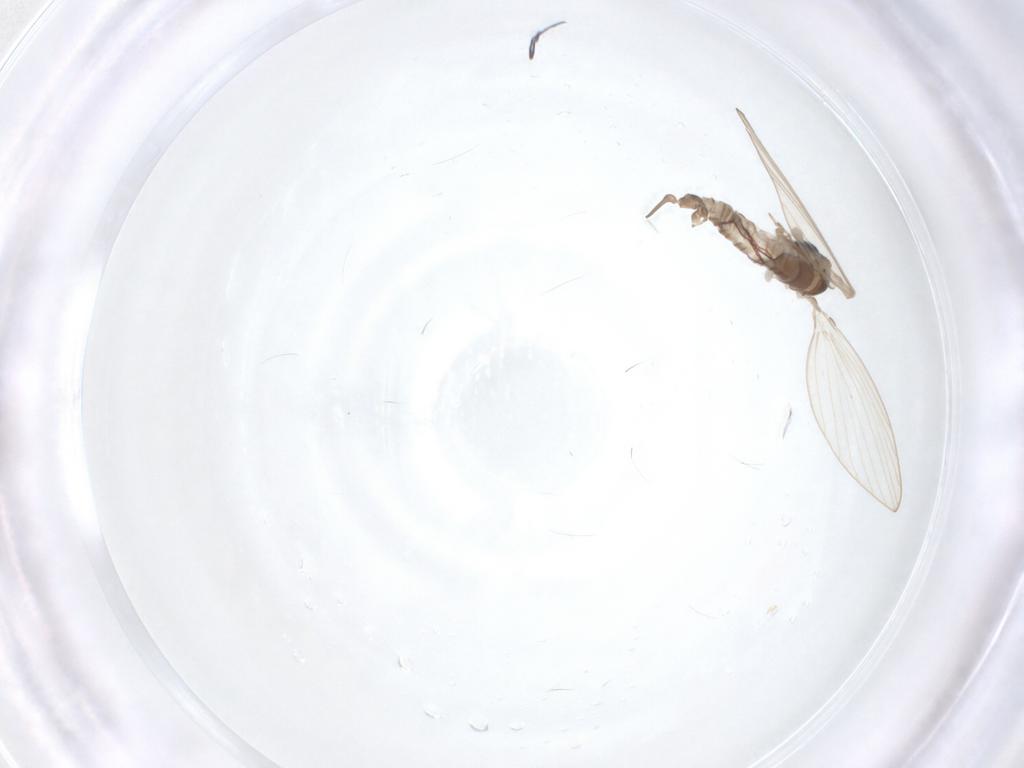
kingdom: Animalia
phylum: Arthropoda
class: Insecta
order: Diptera
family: Limoniidae
